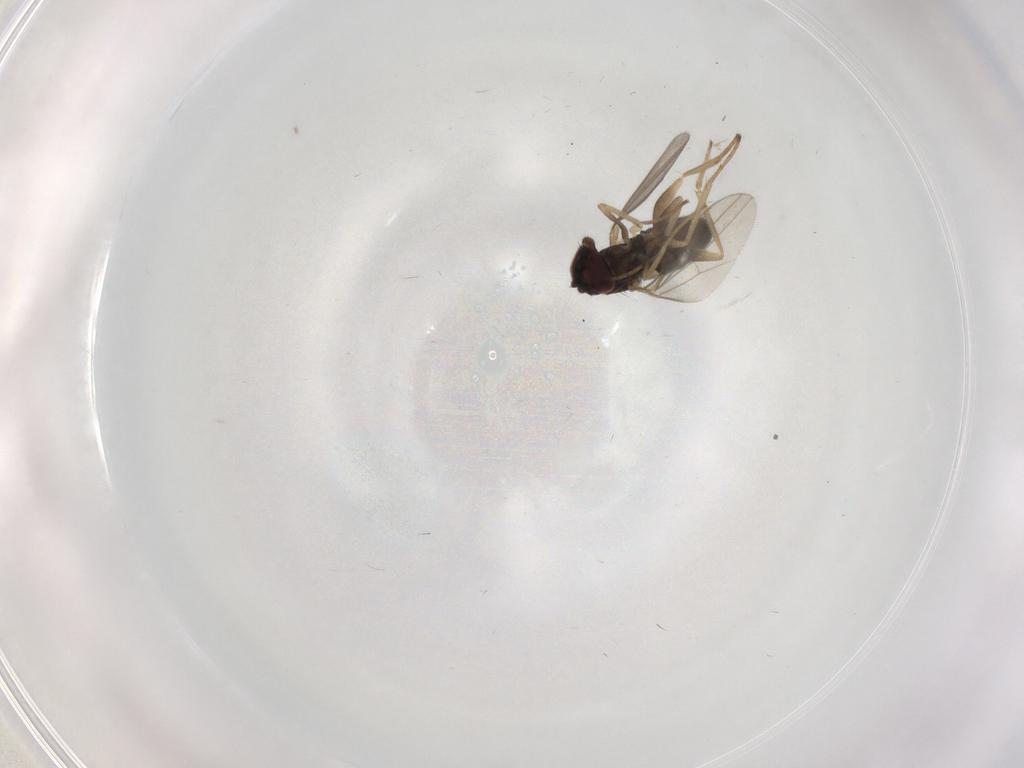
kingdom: Animalia
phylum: Arthropoda
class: Insecta
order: Diptera
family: Dolichopodidae
